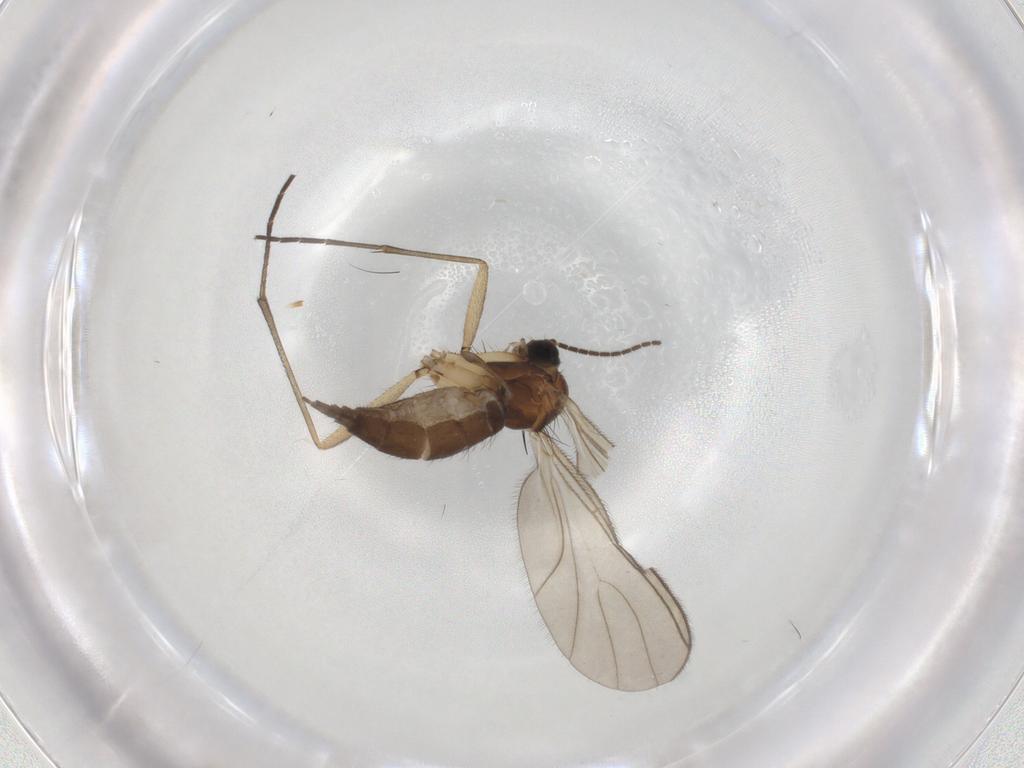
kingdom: Animalia
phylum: Arthropoda
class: Insecta
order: Diptera
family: Sciaridae
